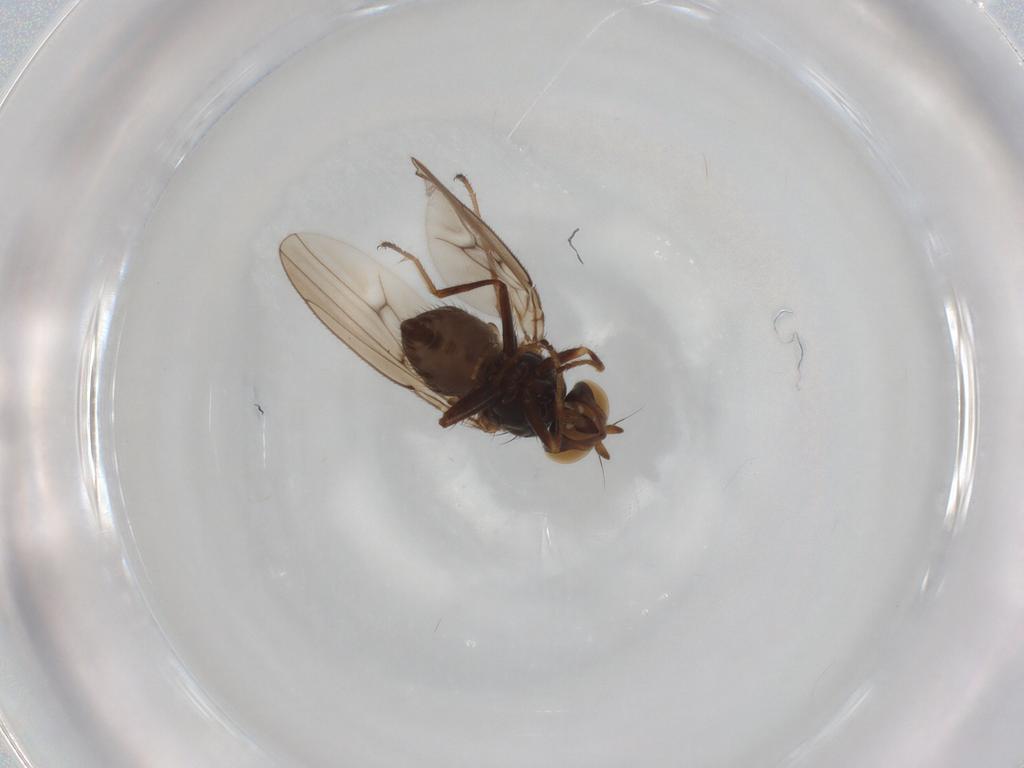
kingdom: Animalia
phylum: Arthropoda
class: Insecta
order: Diptera
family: Ephydridae
